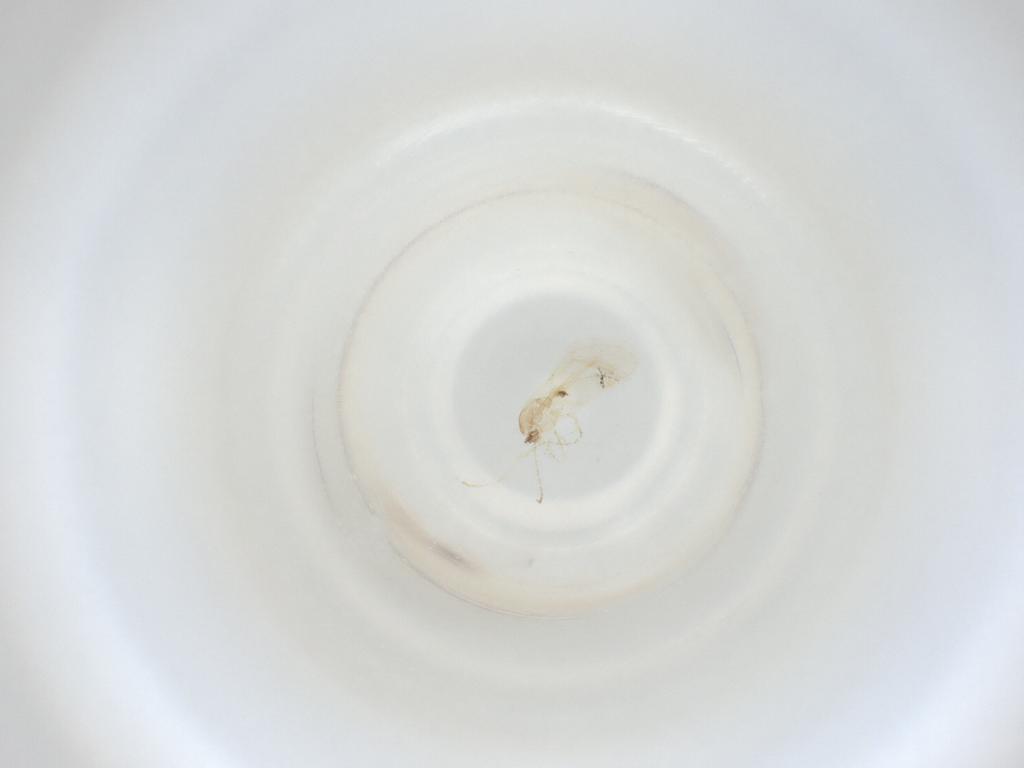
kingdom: Animalia
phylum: Arthropoda
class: Insecta
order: Diptera
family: Cecidomyiidae
